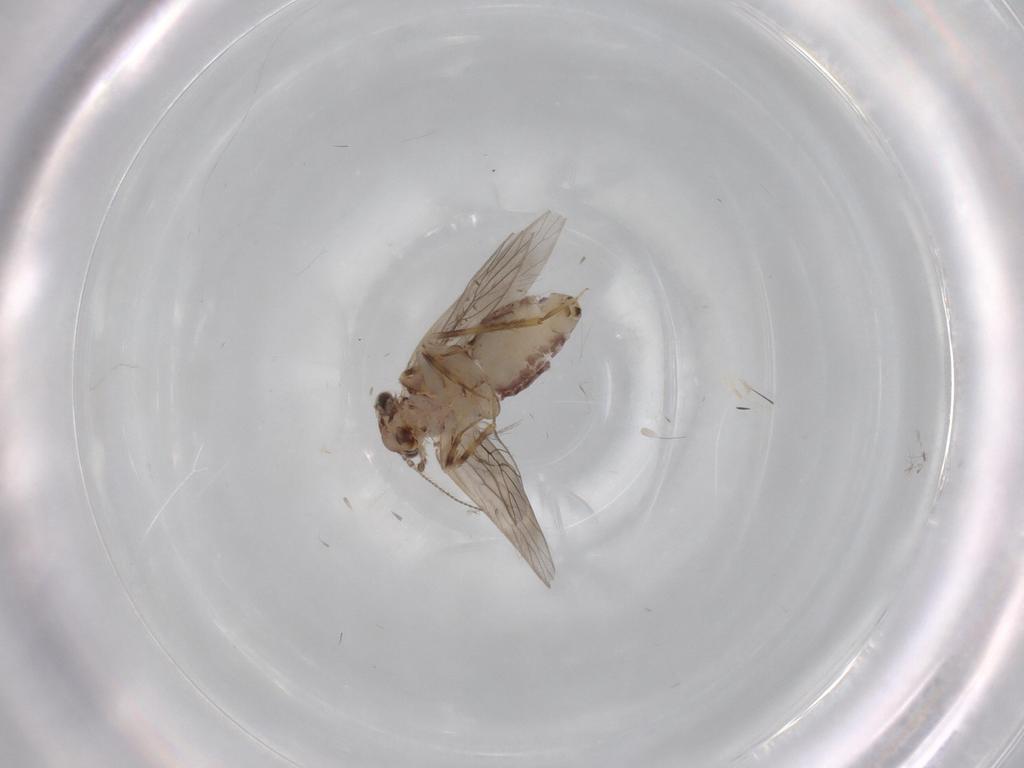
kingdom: Animalia
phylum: Arthropoda
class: Insecta
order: Psocodea
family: Lepidopsocidae
